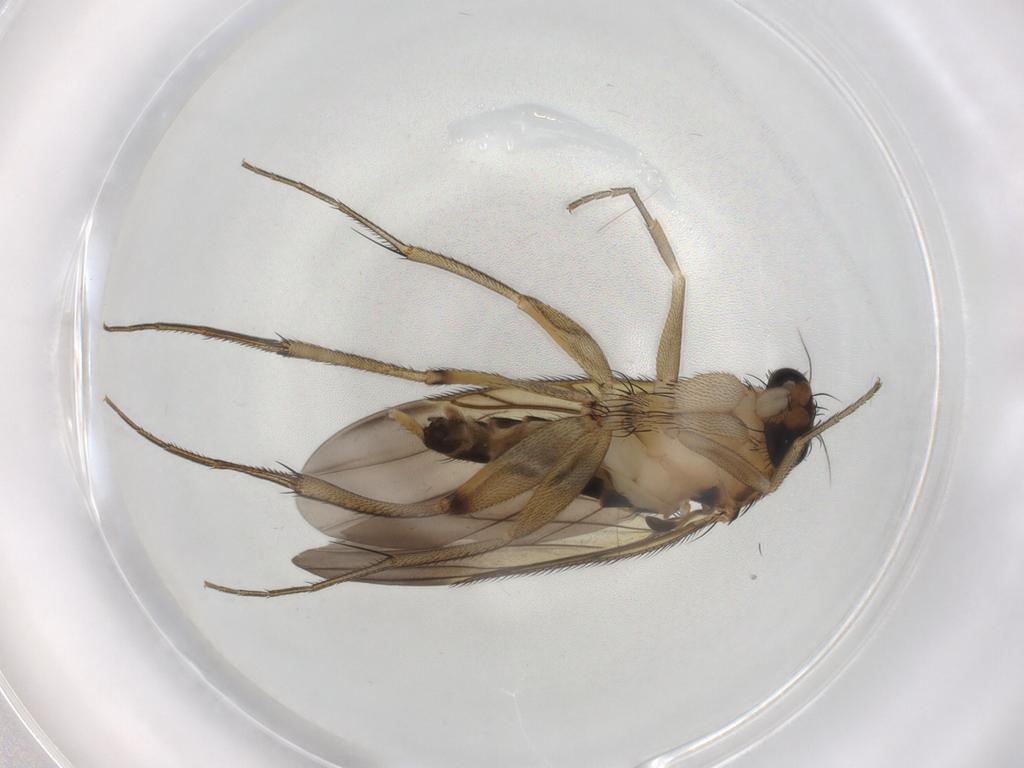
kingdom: Animalia
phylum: Arthropoda
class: Insecta
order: Diptera
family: Phoridae
